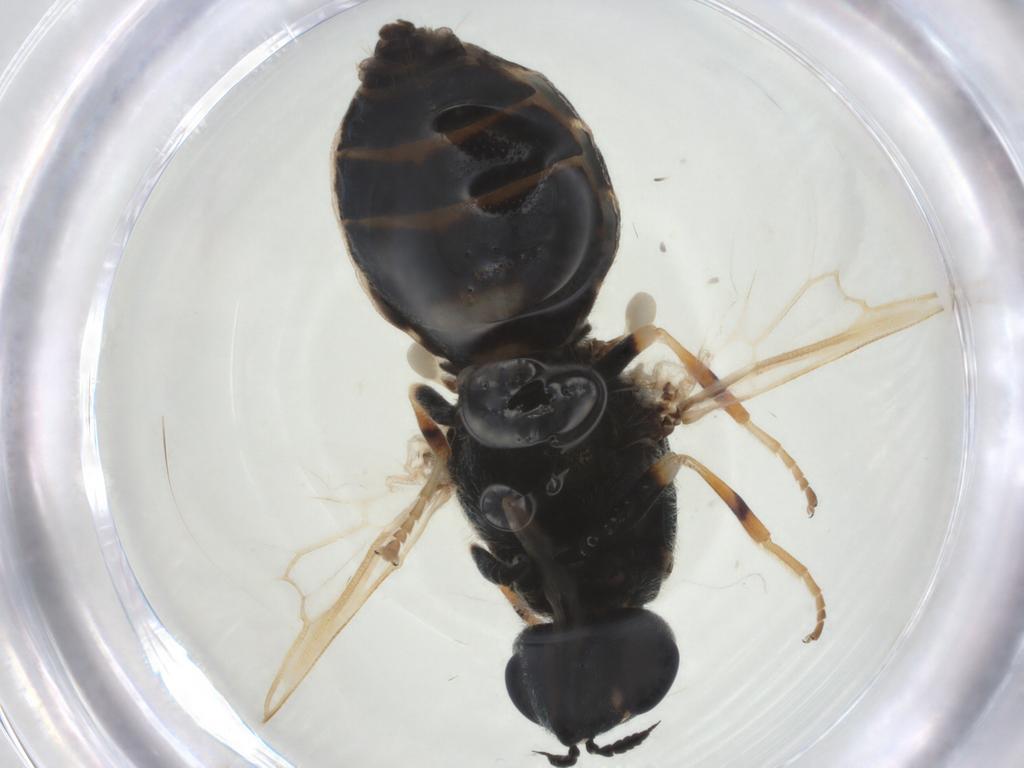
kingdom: Animalia
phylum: Arthropoda
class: Insecta
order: Diptera
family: Stratiomyidae
